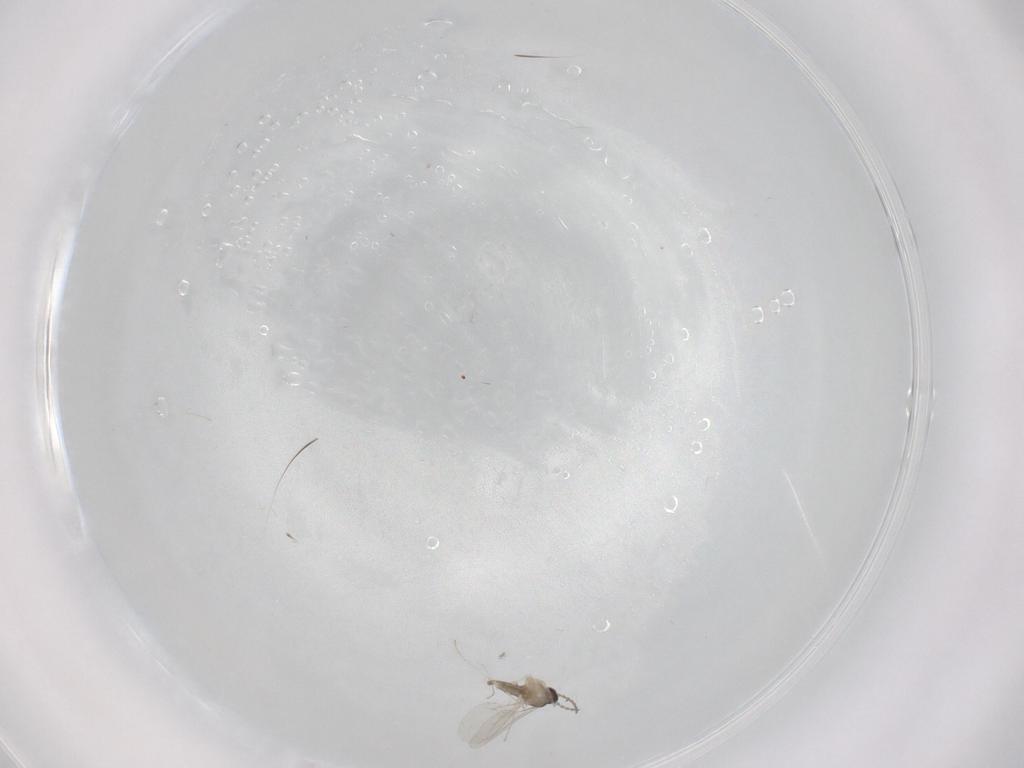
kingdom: Animalia
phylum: Arthropoda
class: Insecta
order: Diptera
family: Cecidomyiidae
